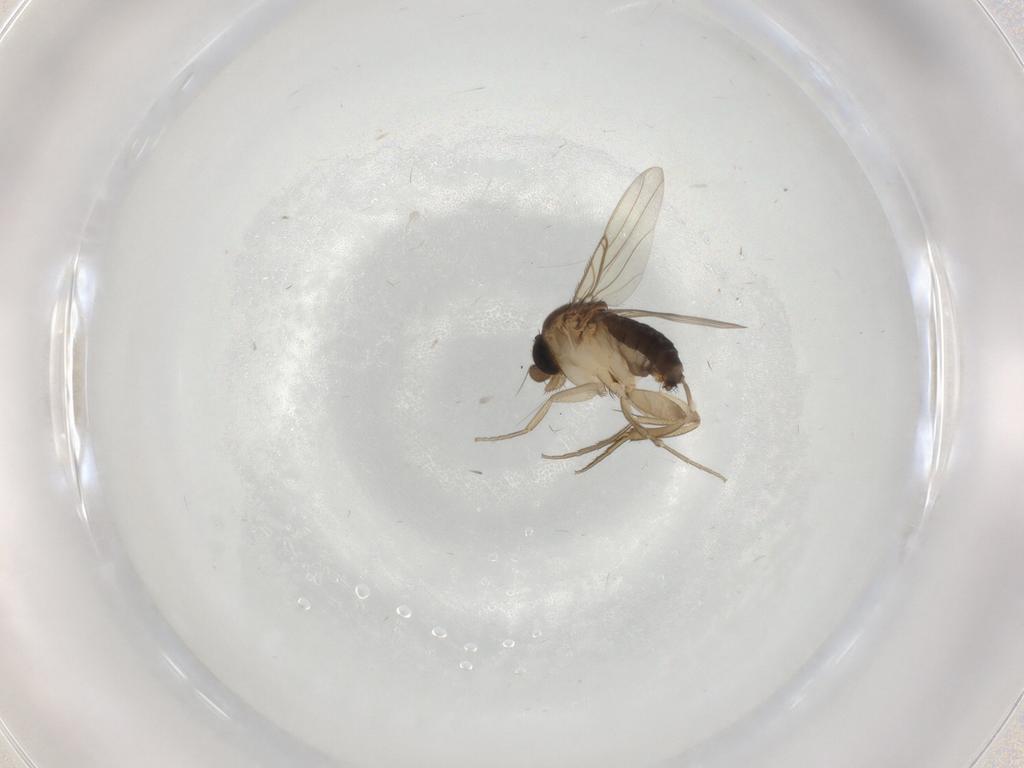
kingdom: Animalia
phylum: Arthropoda
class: Insecta
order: Diptera
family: Phoridae
